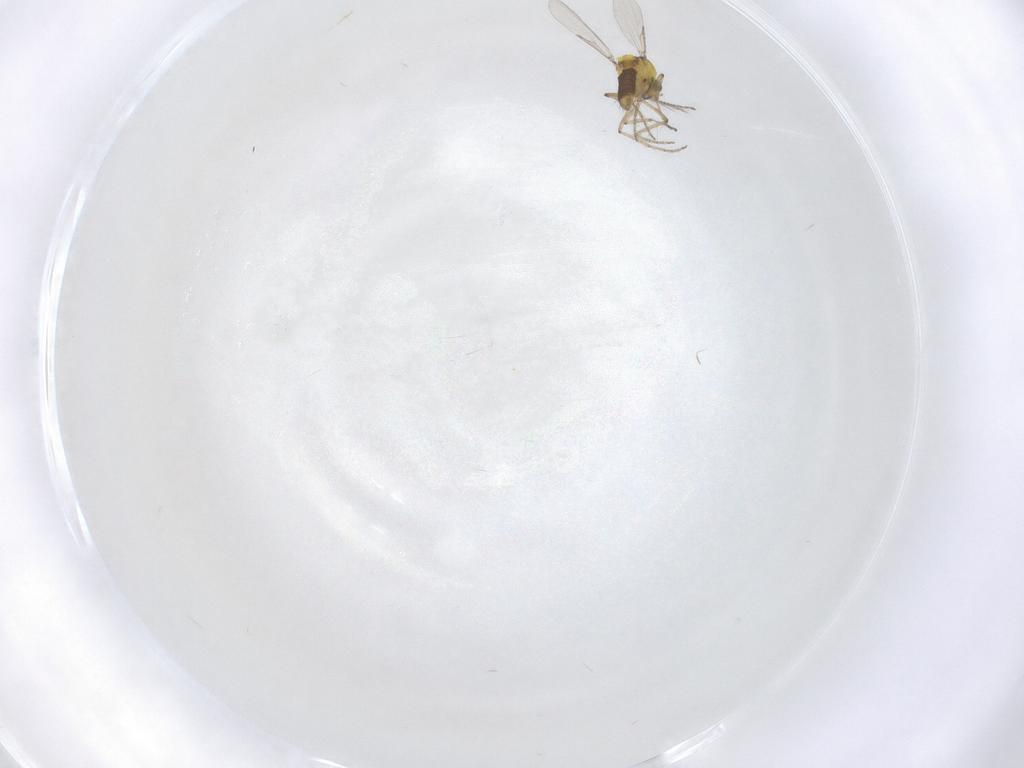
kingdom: Animalia
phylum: Arthropoda
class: Insecta
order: Diptera
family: Ceratopogonidae
